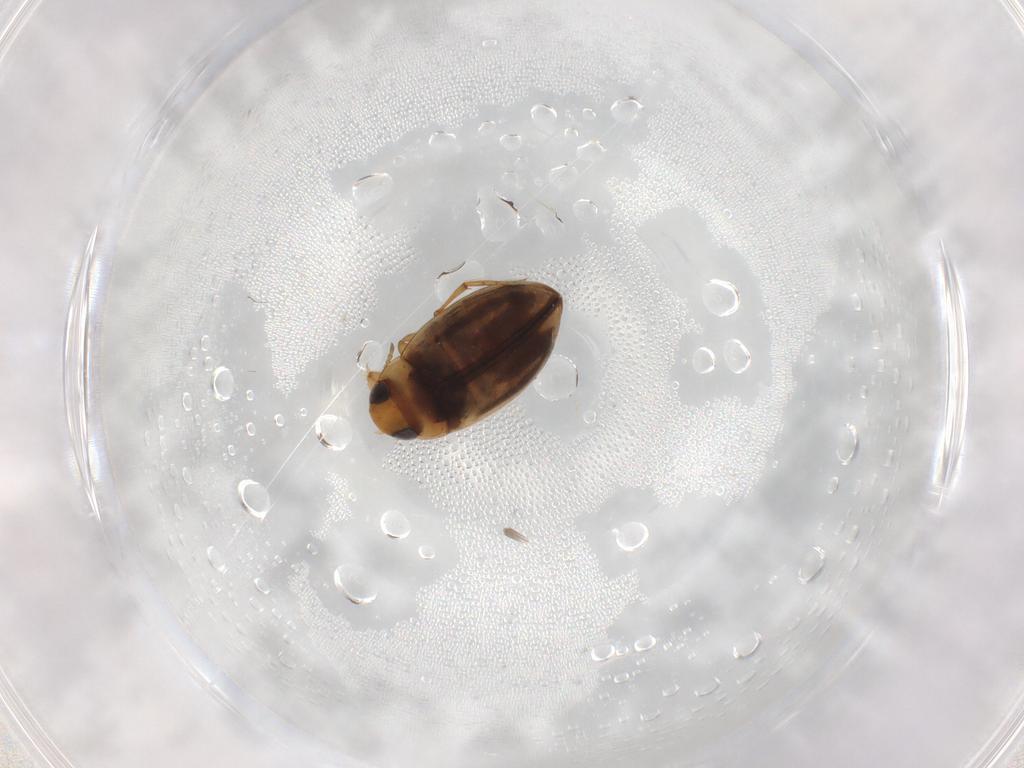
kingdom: Animalia
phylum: Arthropoda
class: Insecta
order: Coleoptera
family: Dytiscidae
